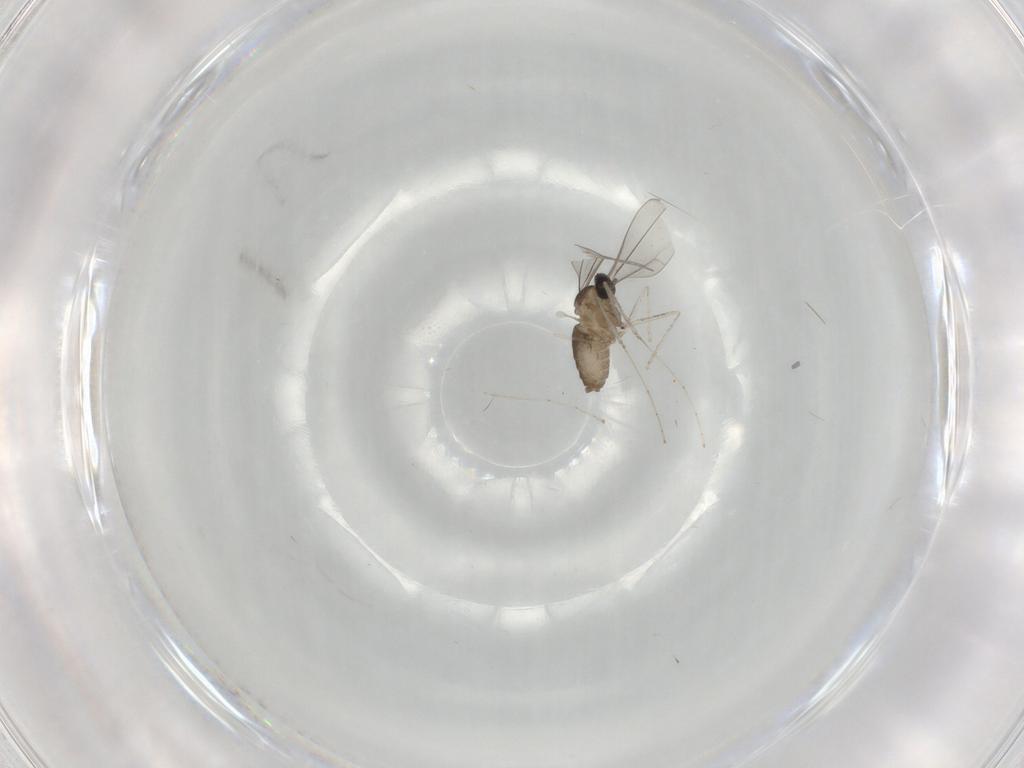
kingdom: Animalia
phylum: Arthropoda
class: Insecta
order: Diptera
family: Cecidomyiidae
